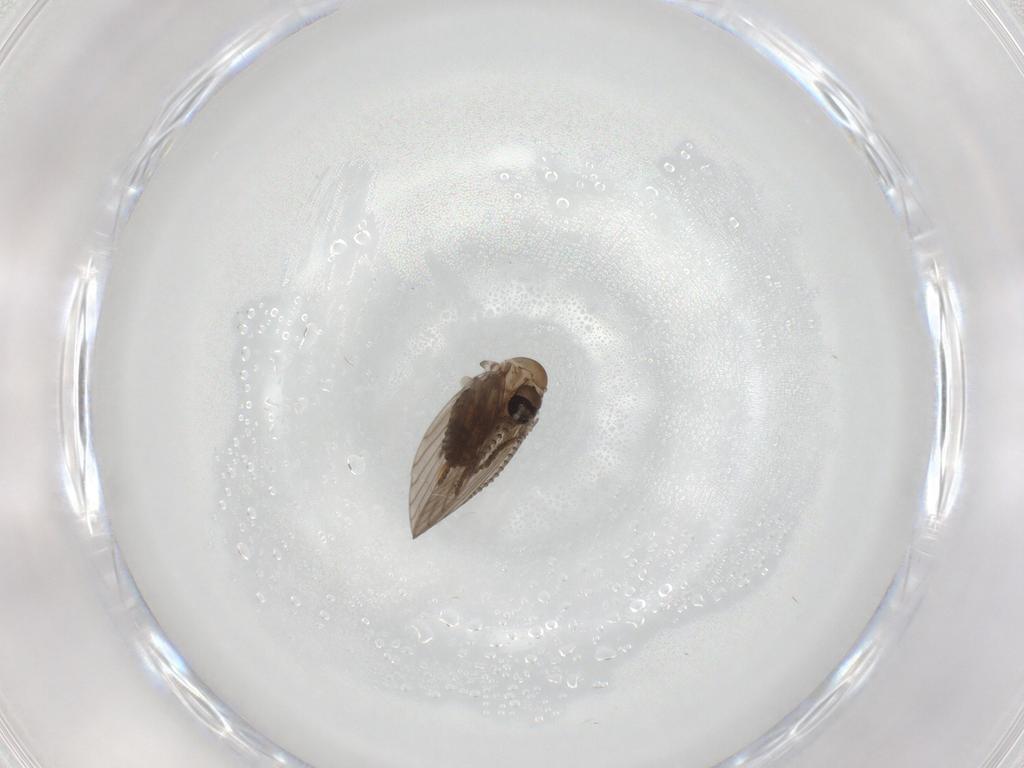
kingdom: Animalia
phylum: Arthropoda
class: Insecta
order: Diptera
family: Psychodidae
